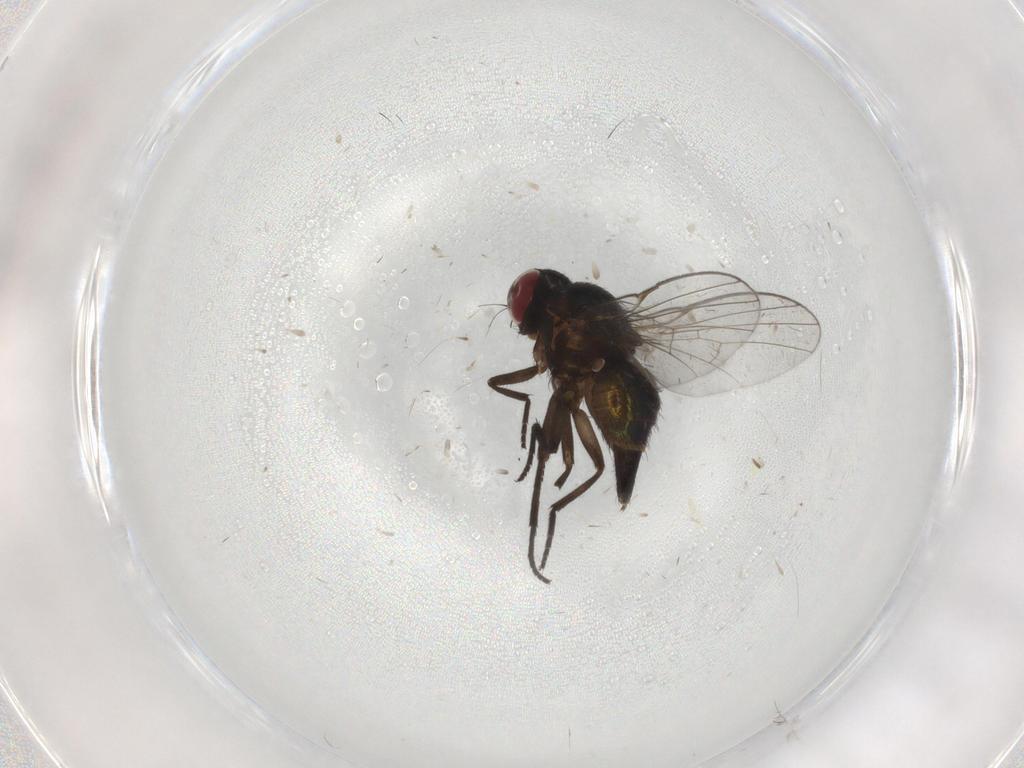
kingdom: Animalia
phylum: Arthropoda
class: Insecta
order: Diptera
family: Agromyzidae
